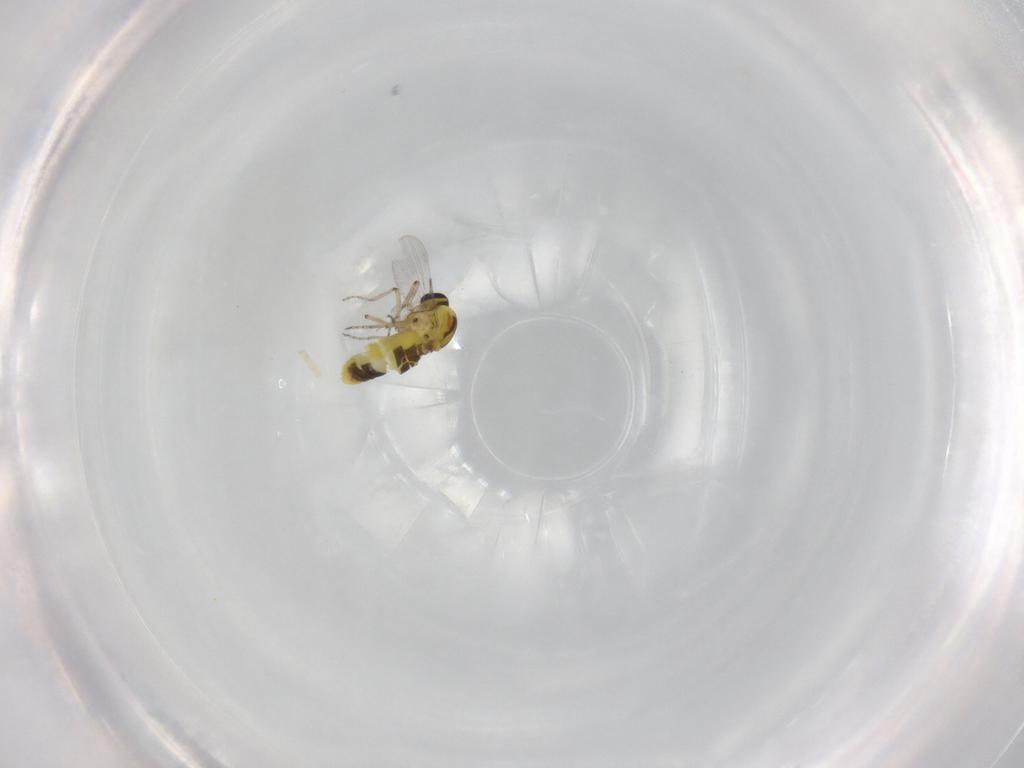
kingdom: Animalia
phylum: Arthropoda
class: Insecta
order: Diptera
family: Ceratopogonidae
